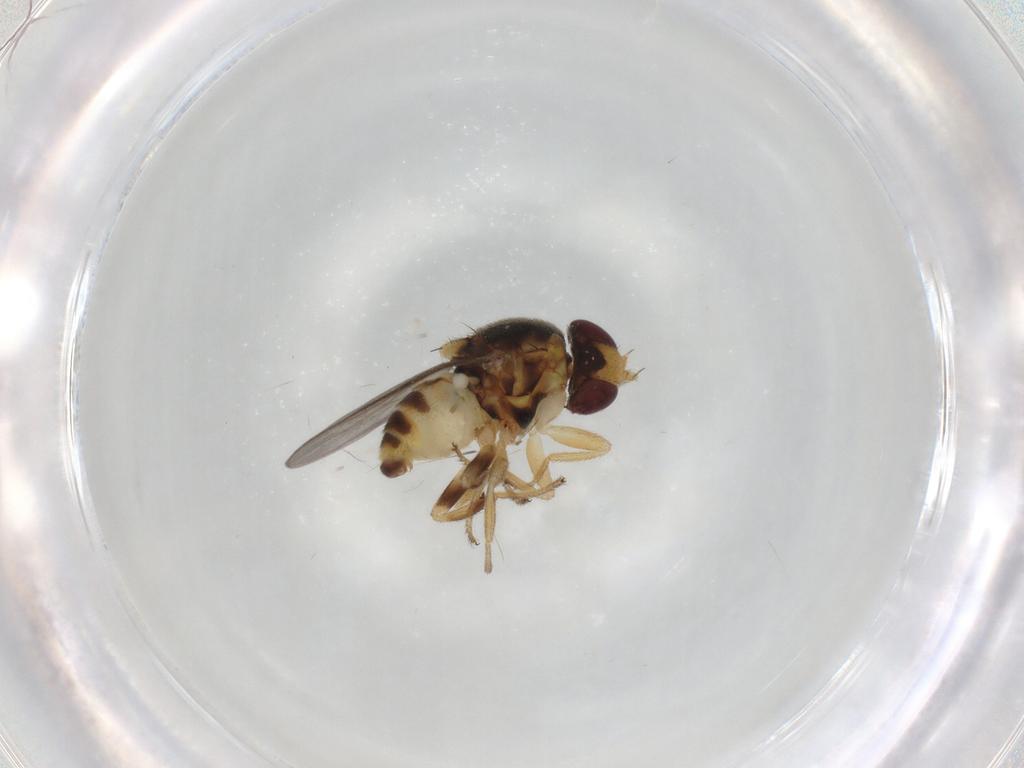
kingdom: Animalia
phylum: Arthropoda
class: Insecta
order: Diptera
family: Chloropidae
